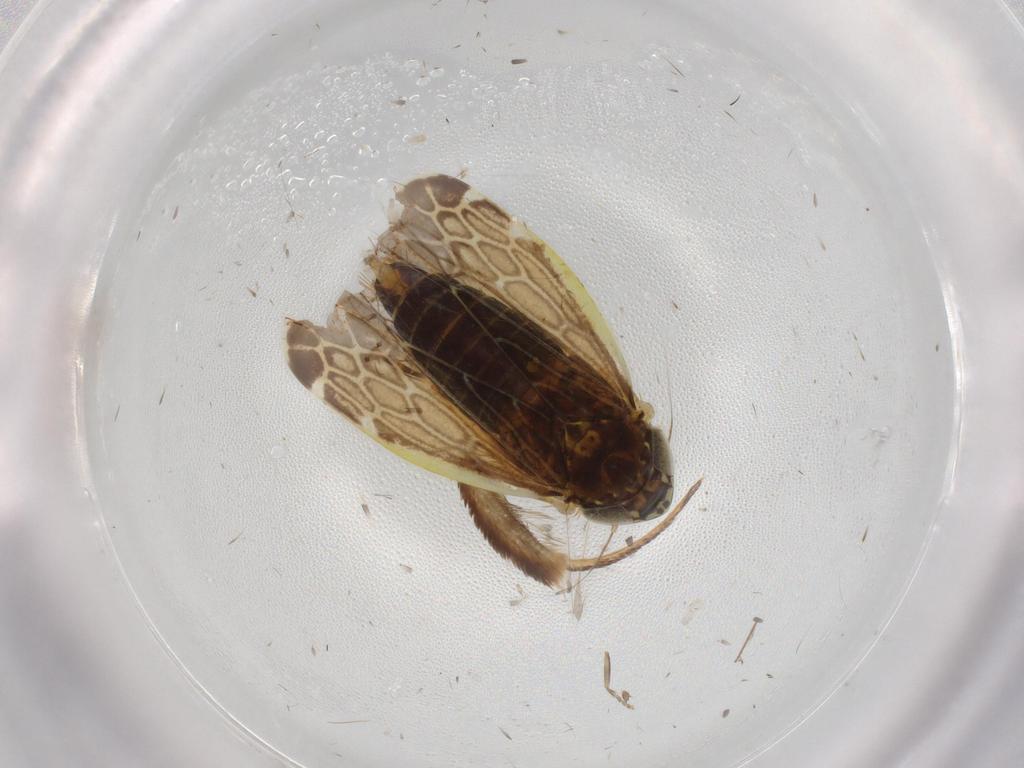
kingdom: Animalia
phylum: Arthropoda
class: Insecta
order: Hemiptera
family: Cicadellidae
